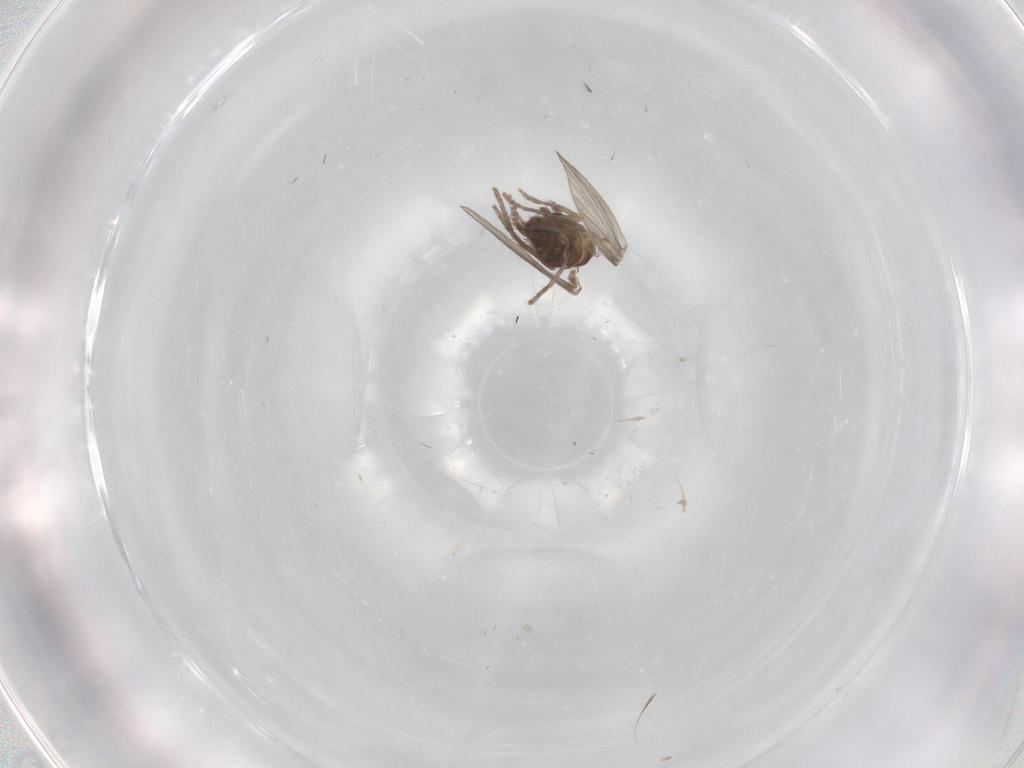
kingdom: Animalia
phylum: Arthropoda
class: Insecta
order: Diptera
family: Psychodidae
